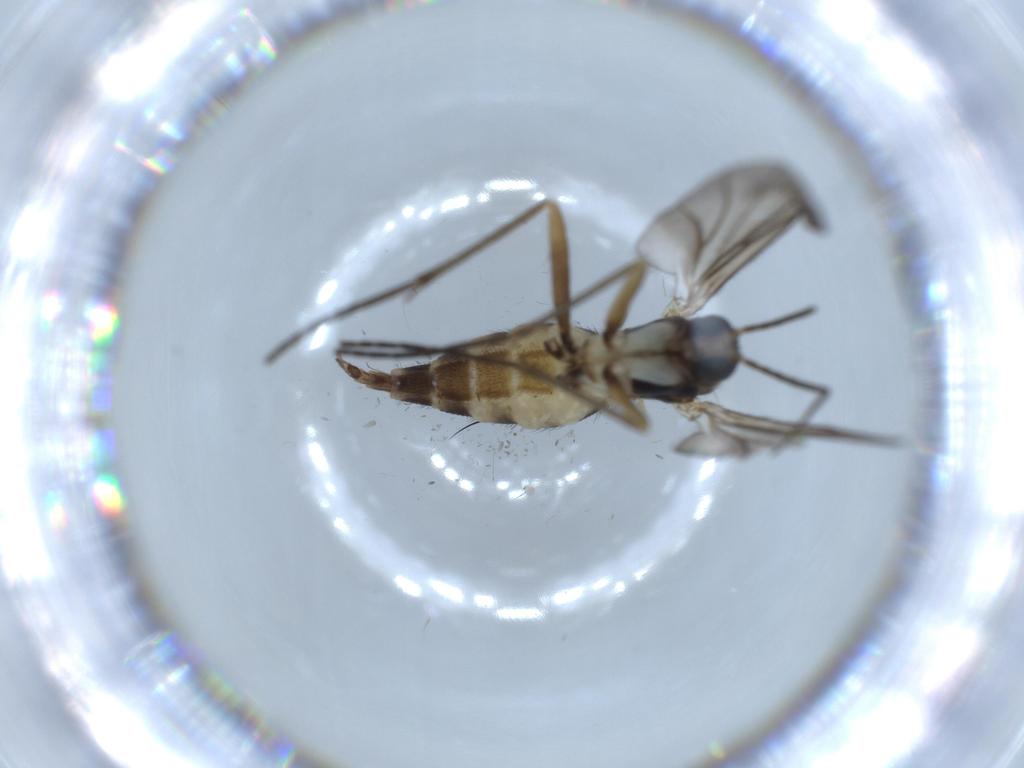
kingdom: Animalia
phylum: Arthropoda
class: Insecta
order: Diptera
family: Sciaridae
